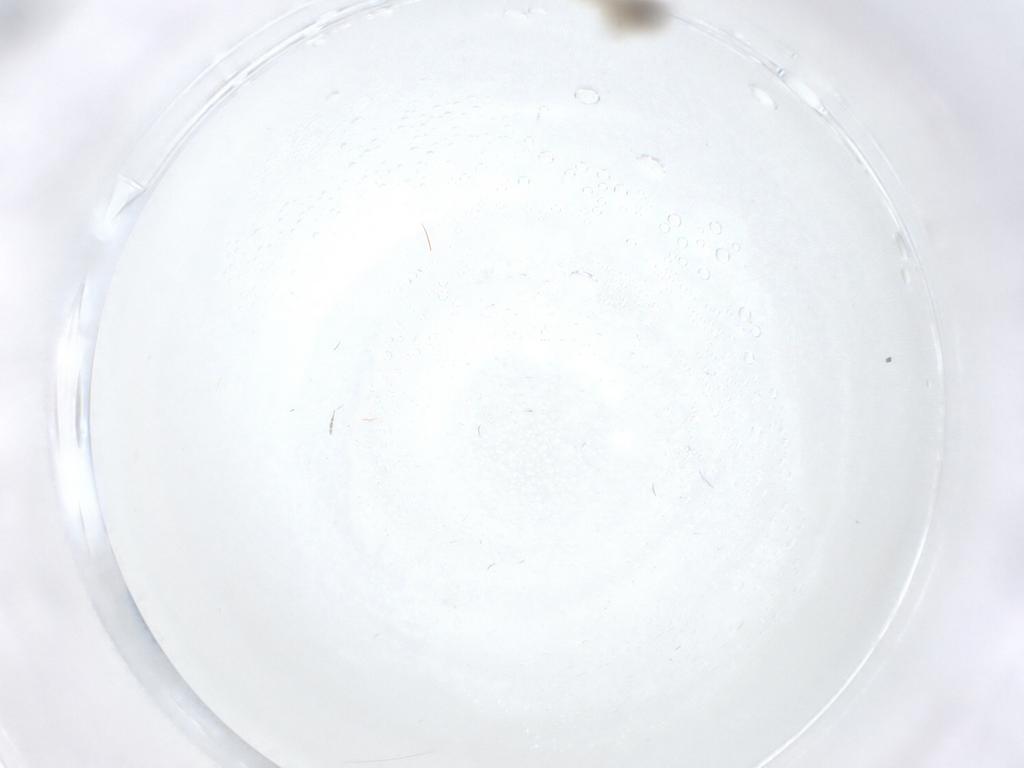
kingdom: Animalia
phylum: Arthropoda
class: Insecta
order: Diptera
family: Cecidomyiidae
